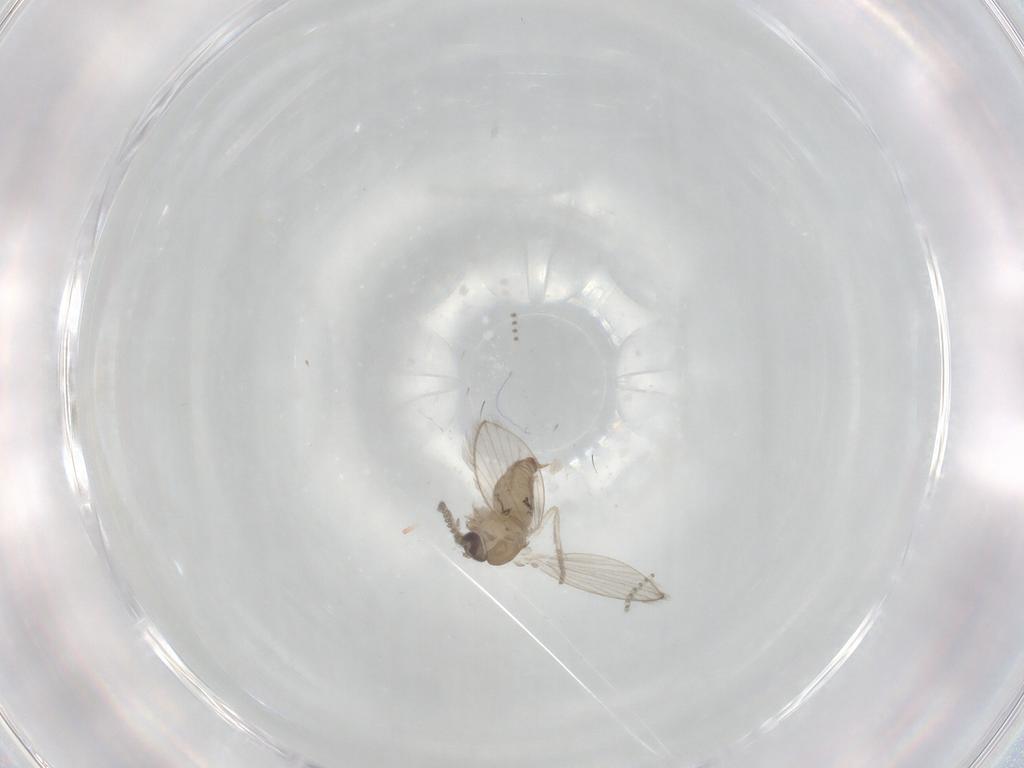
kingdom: Animalia
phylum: Arthropoda
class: Insecta
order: Diptera
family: Psychodidae
